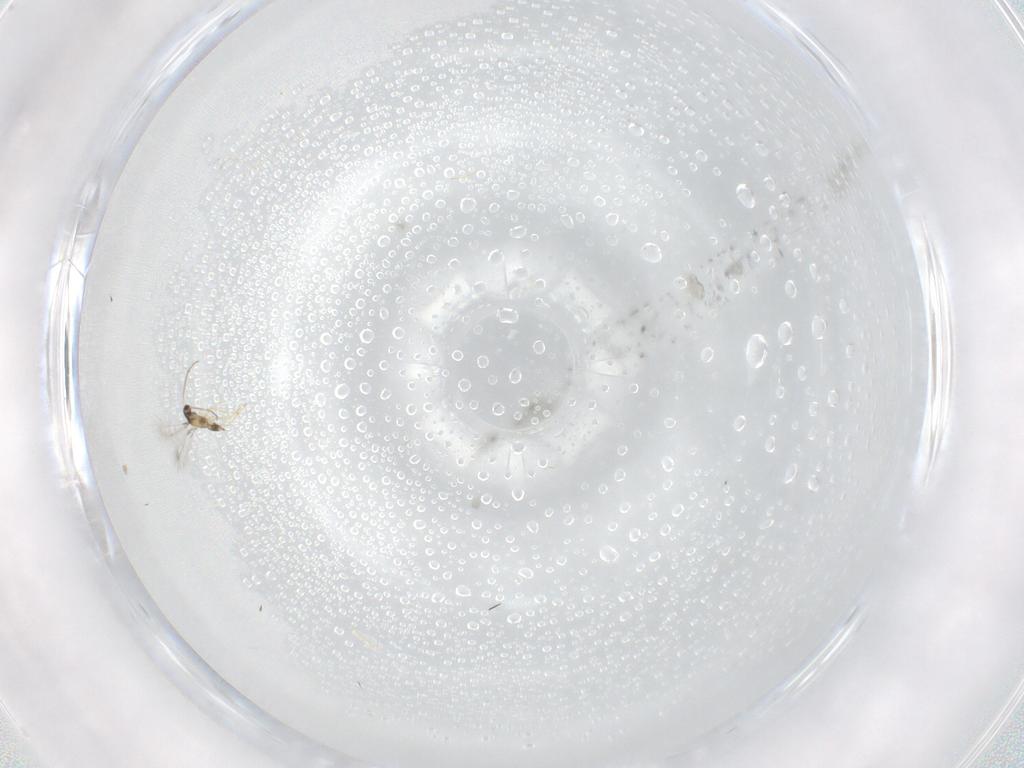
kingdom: Animalia
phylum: Arthropoda
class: Insecta
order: Hymenoptera
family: Mymaridae
